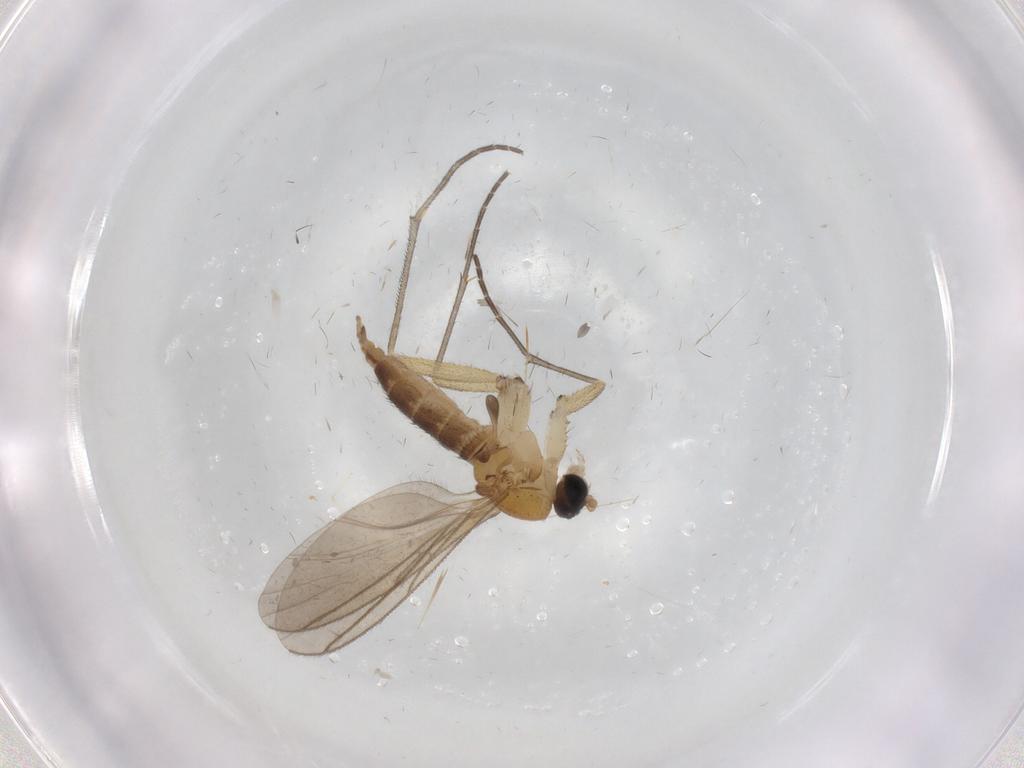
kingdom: Animalia
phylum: Arthropoda
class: Insecta
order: Diptera
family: Sciaridae
